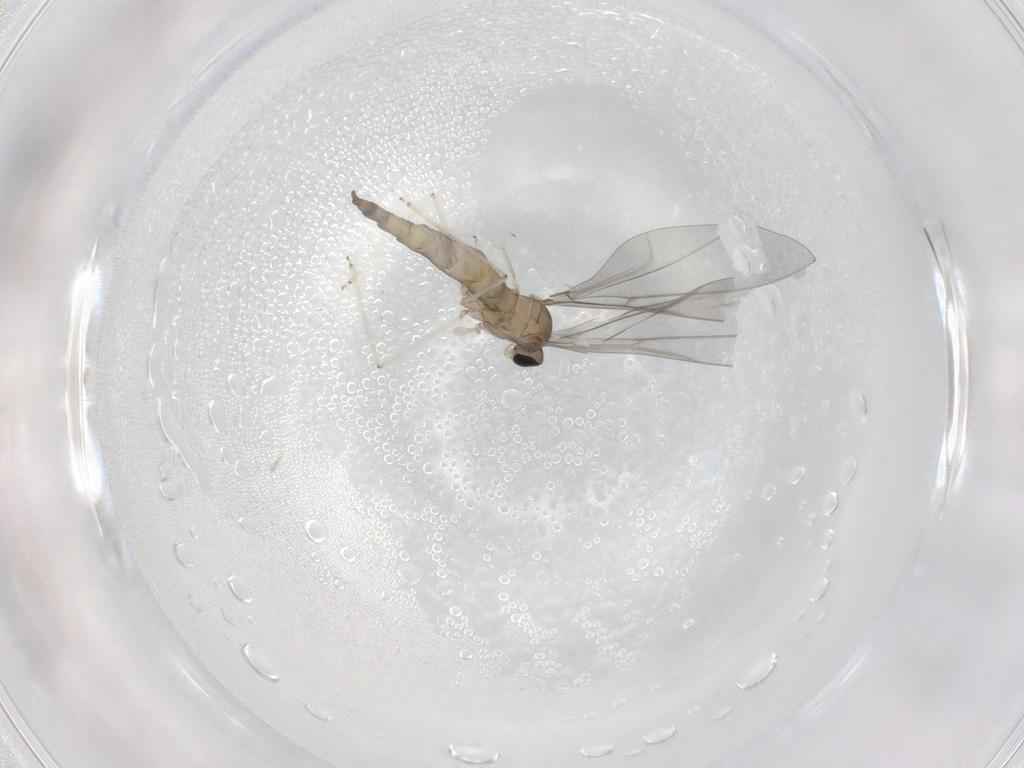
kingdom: Animalia
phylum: Arthropoda
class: Insecta
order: Diptera
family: Cecidomyiidae
